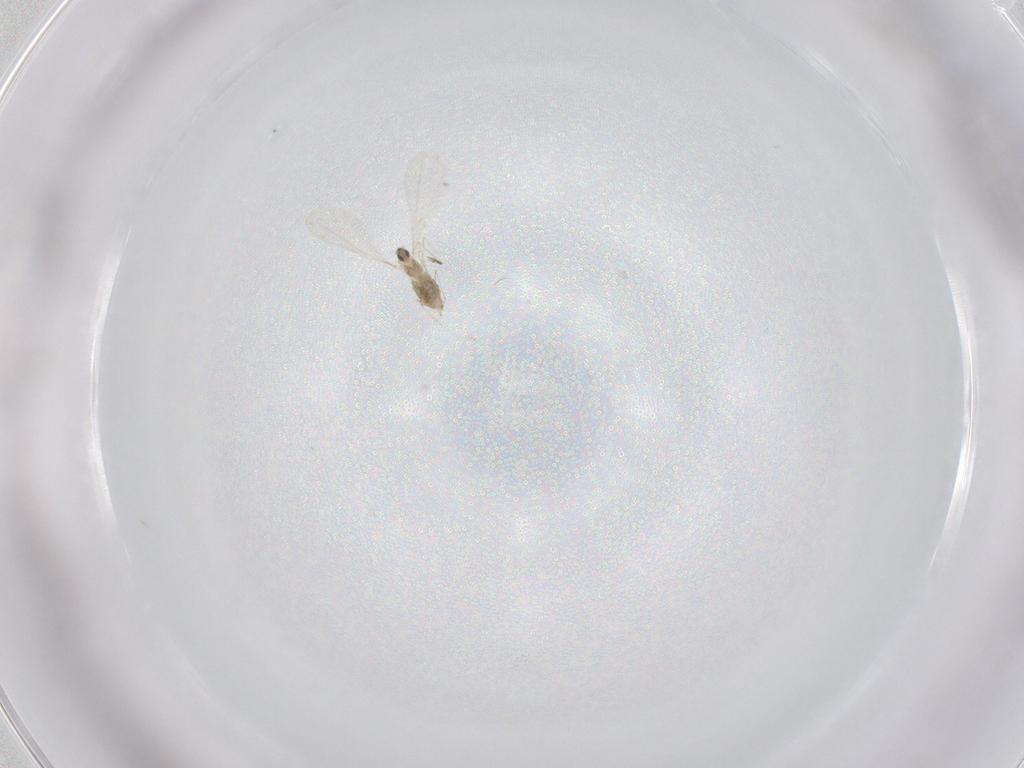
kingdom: Animalia
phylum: Arthropoda
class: Insecta
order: Diptera
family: Cecidomyiidae
